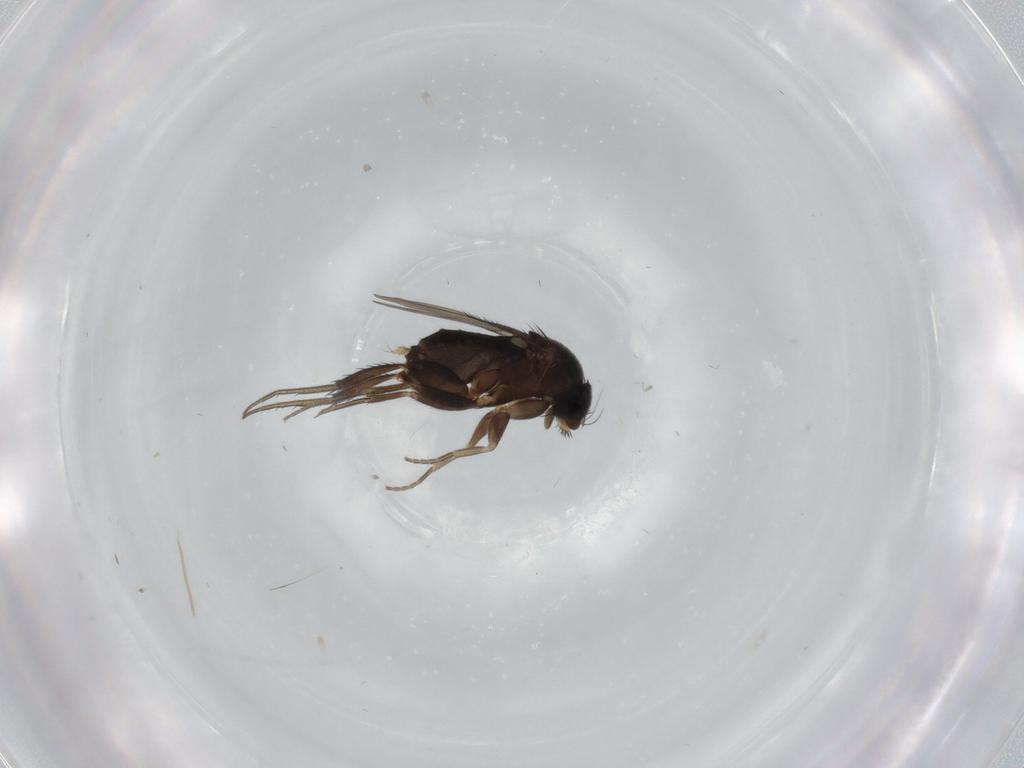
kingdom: Animalia
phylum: Arthropoda
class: Insecta
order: Diptera
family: Phoridae
